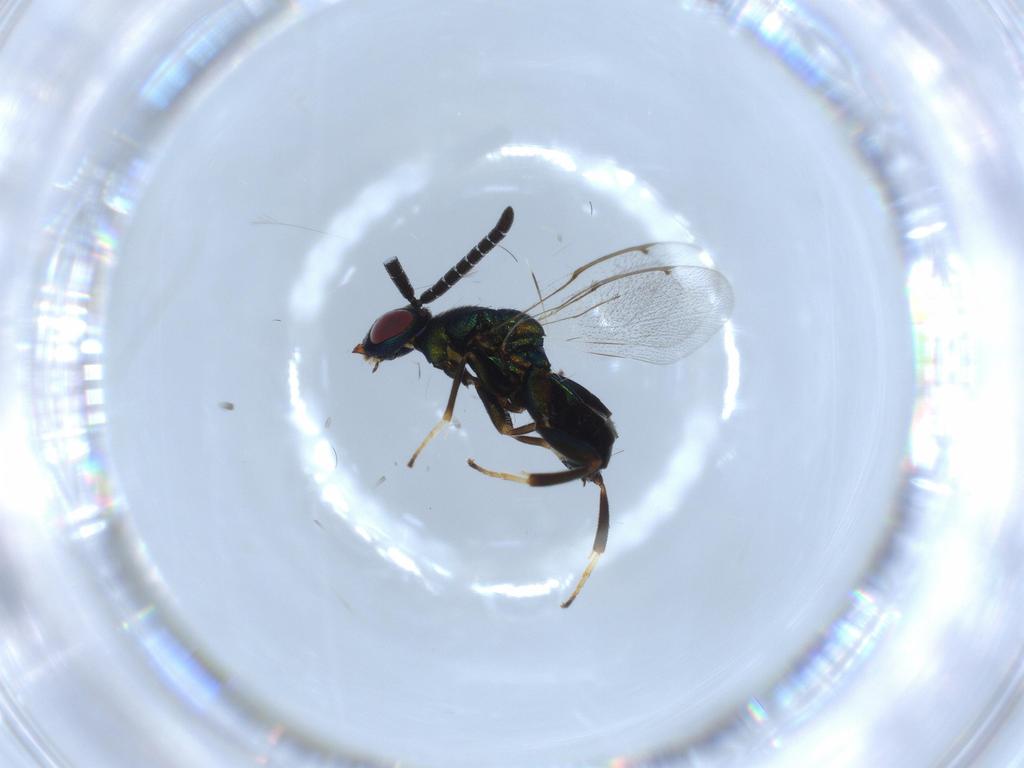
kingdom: Animalia
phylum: Arthropoda
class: Insecta
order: Hymenoptera
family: Torymidae
